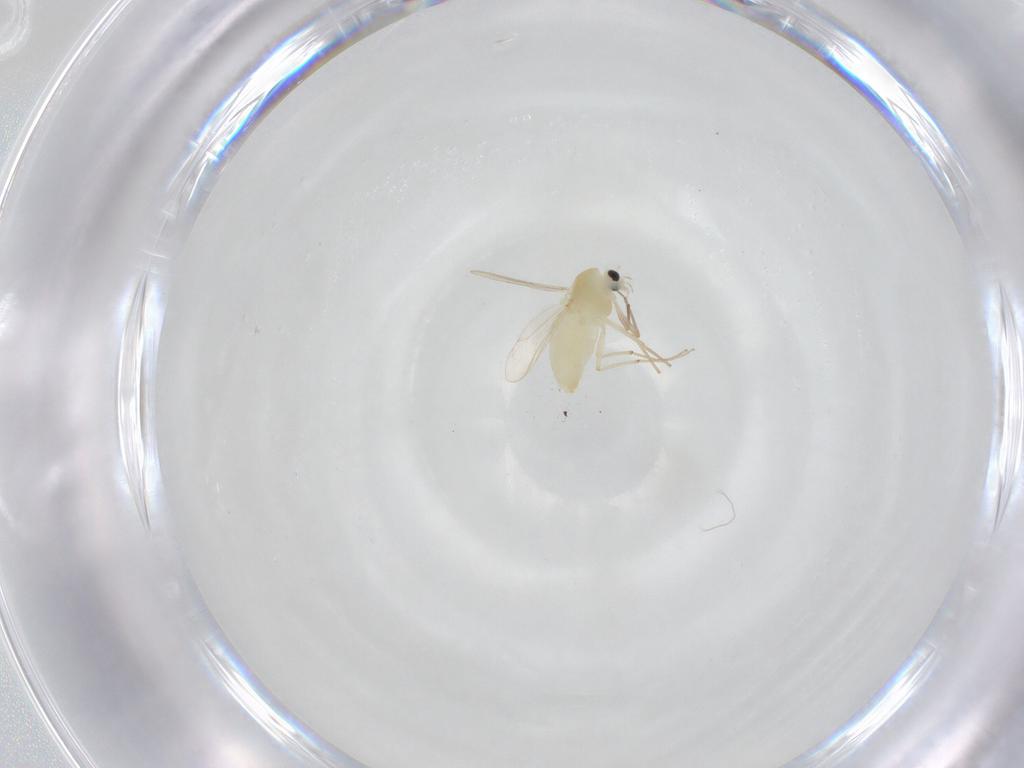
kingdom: Animalia
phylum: Arthropoda
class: Insecta
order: Diptera
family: Chironomidae
